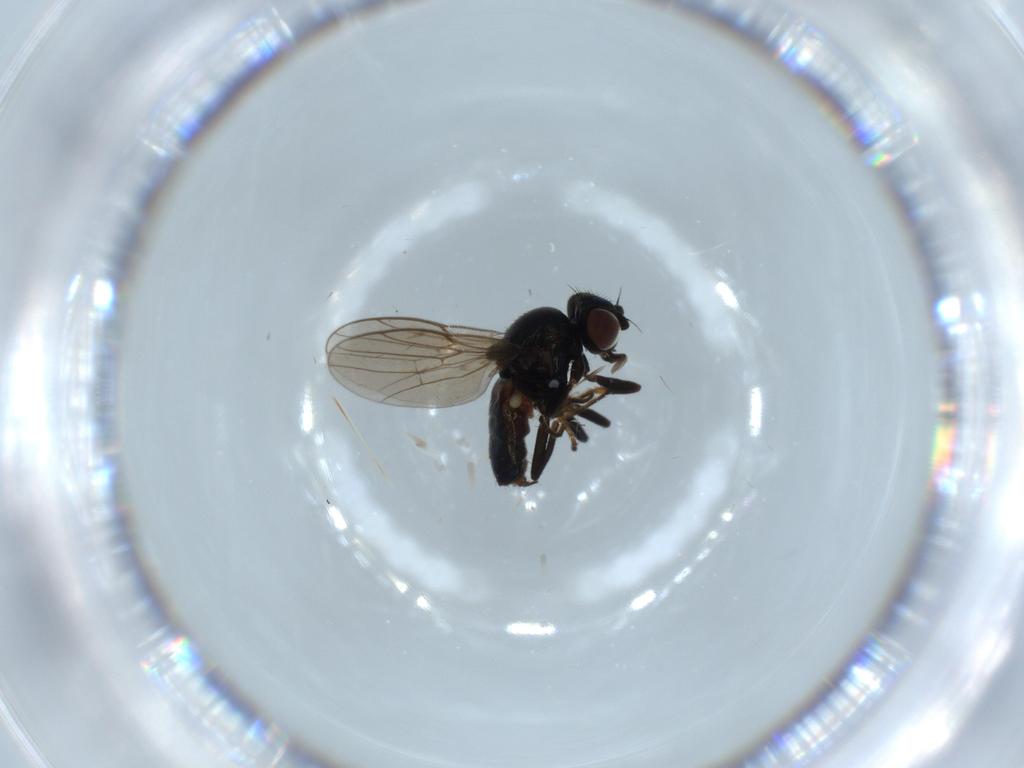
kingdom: Animalia
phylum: Arthropoda
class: Insecta
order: Diptera
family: Chloropidae
